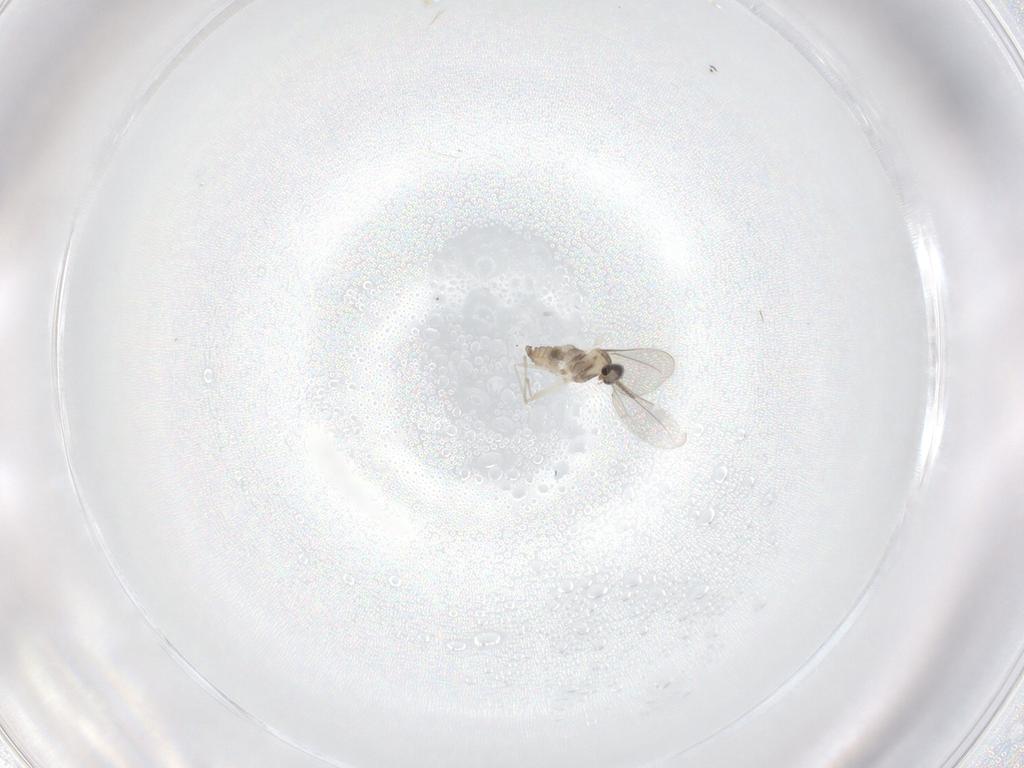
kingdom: Animalia
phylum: Arthropoda
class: Insecta
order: Diptera
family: Cecidomyiidae
